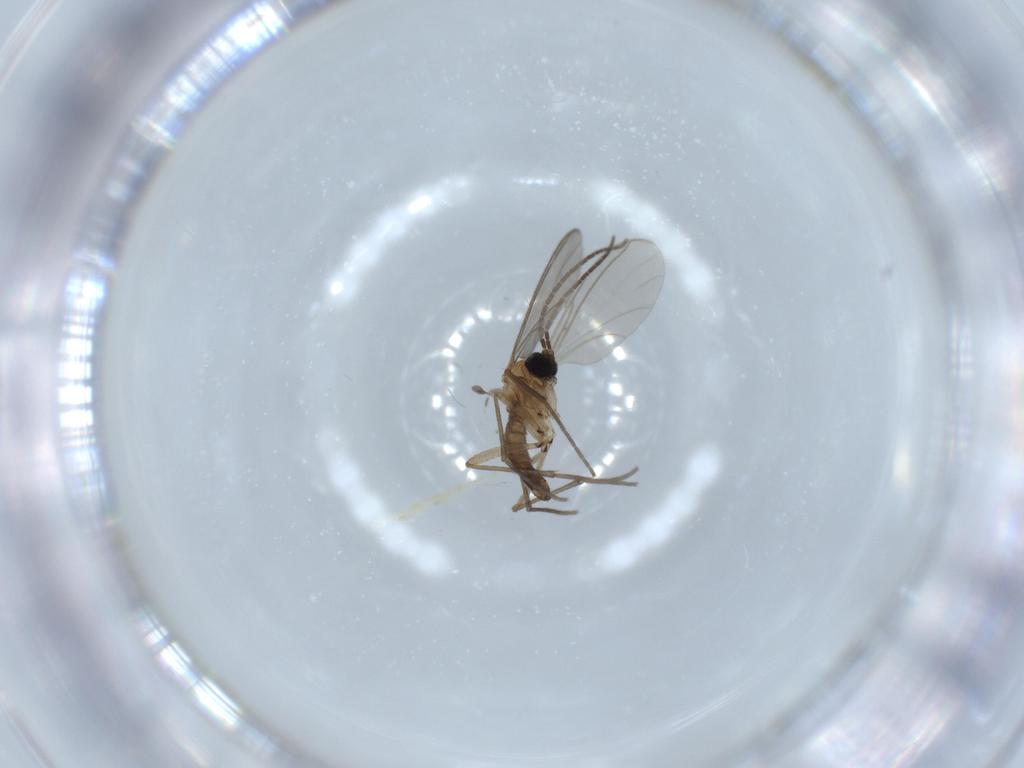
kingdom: Animalia
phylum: Arthropoda
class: Insecta
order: Diptera
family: Sciaridae
